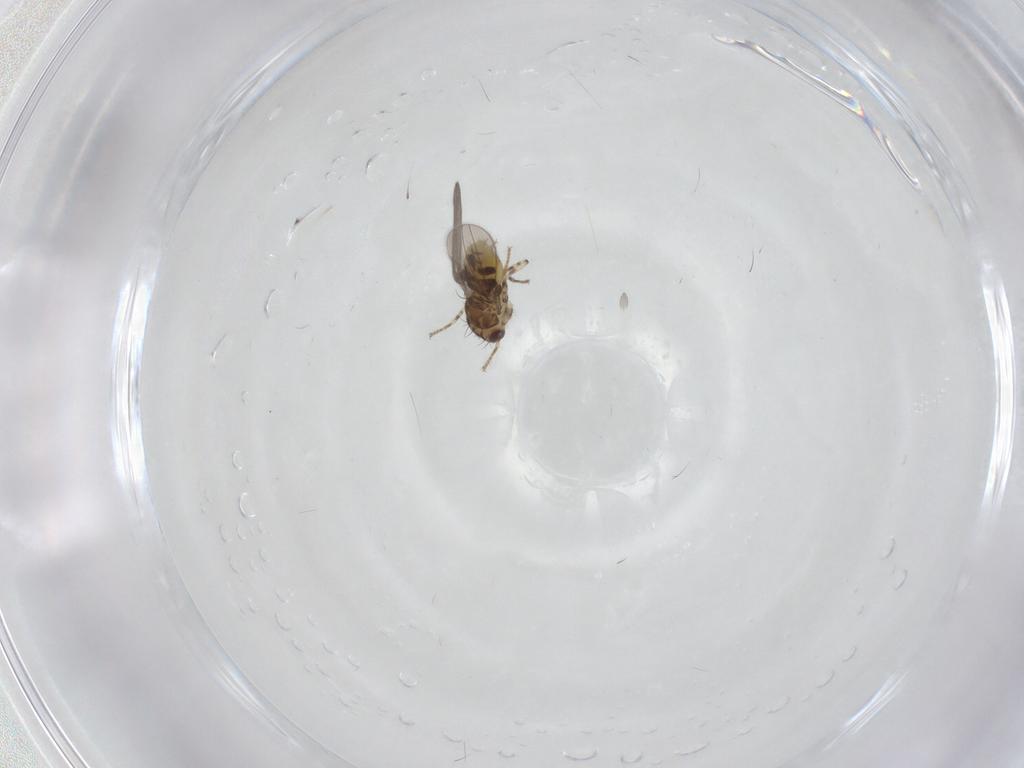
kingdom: Animalia
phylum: Arthropoda
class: Insecta
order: Diptera
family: Asteiidae
